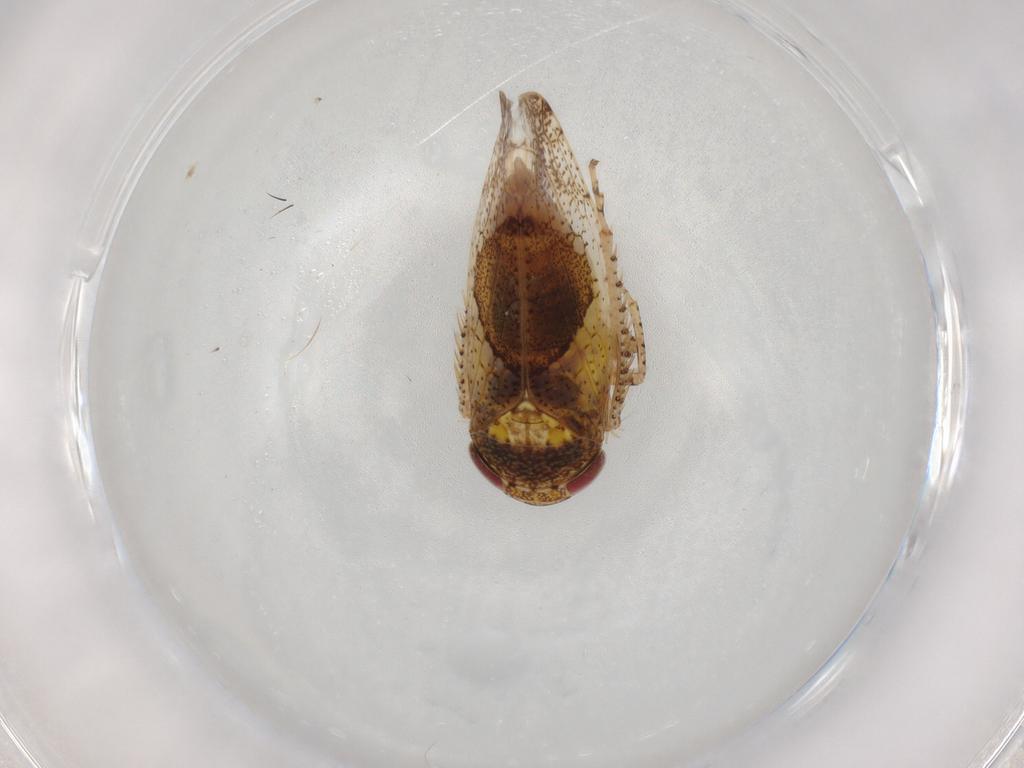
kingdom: Animalia
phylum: Arthropoda
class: Insecta
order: Hemiptera
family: Cicadellidae
